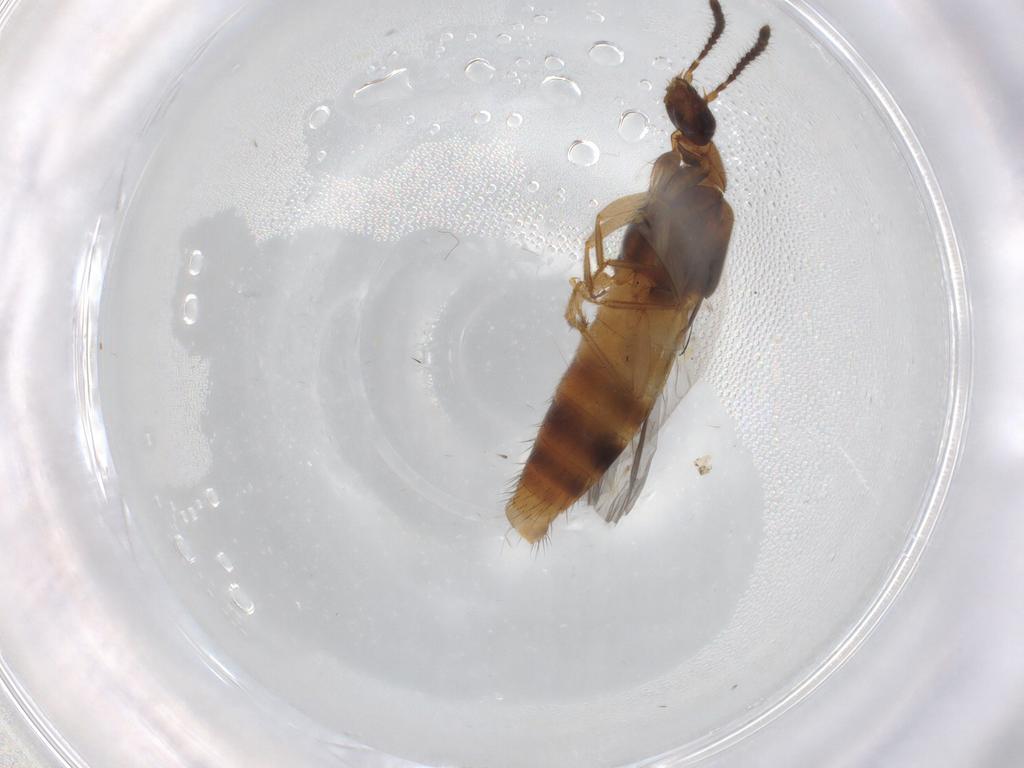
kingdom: Animalia
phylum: Arthropoda
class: Insecta
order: Coleoptera
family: Staphylinidae
